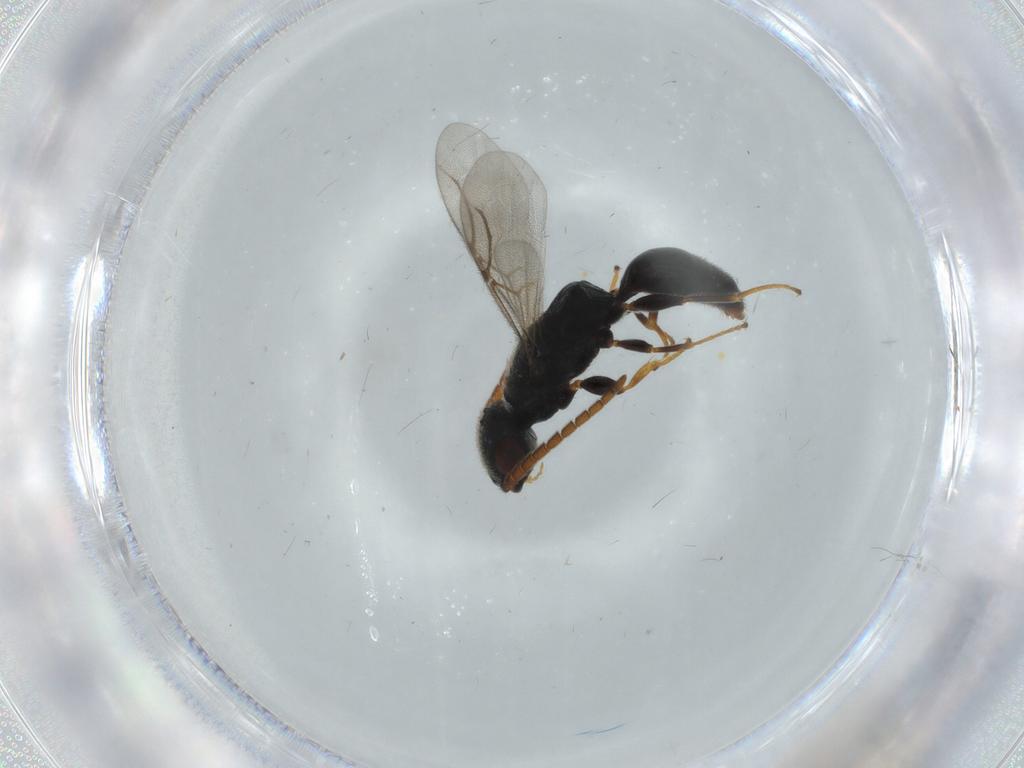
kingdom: Animalia
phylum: Arthropoda
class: Insecta
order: Hymenoptera
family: Bethylidae
